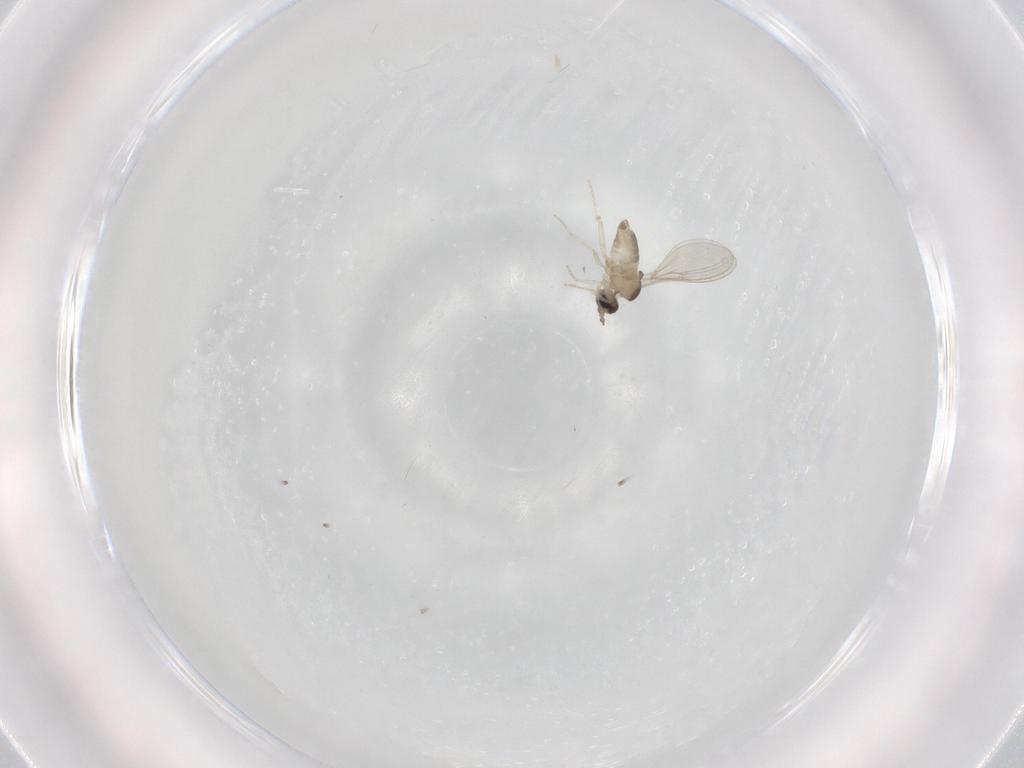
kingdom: Animalia
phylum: Arthropoda
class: Insecta
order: Diptera
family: Cecidomyiidae
